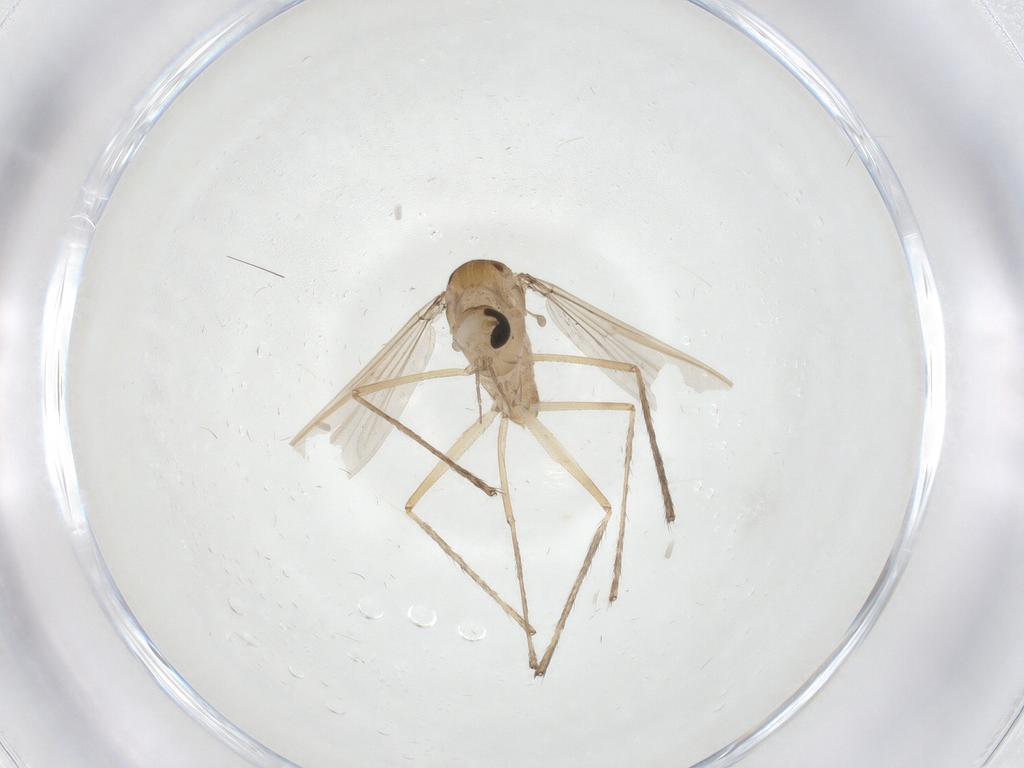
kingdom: Animalia
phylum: Arthropoda
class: Insecta
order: Diptera
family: Chironomidae
